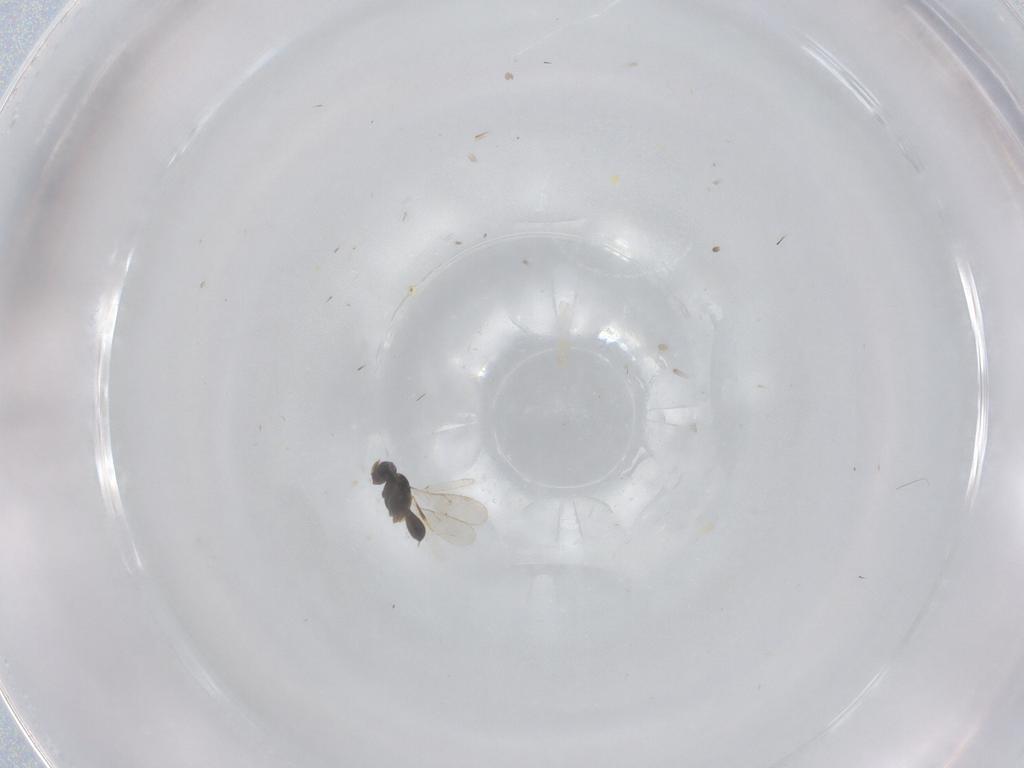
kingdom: Animalia
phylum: Arthropoda
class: Insecta
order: Hymenoptera
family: Scelionidae
